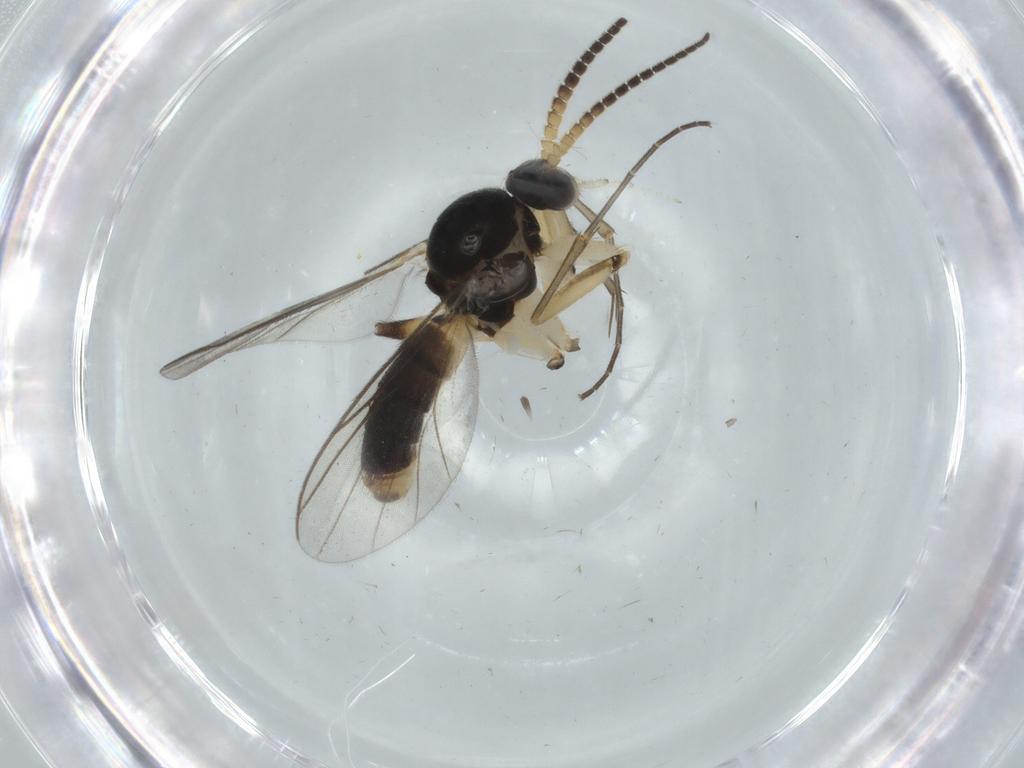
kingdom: Animalia
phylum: Arthropoda
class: Insecta
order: Diptera
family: Mycetophilidae
